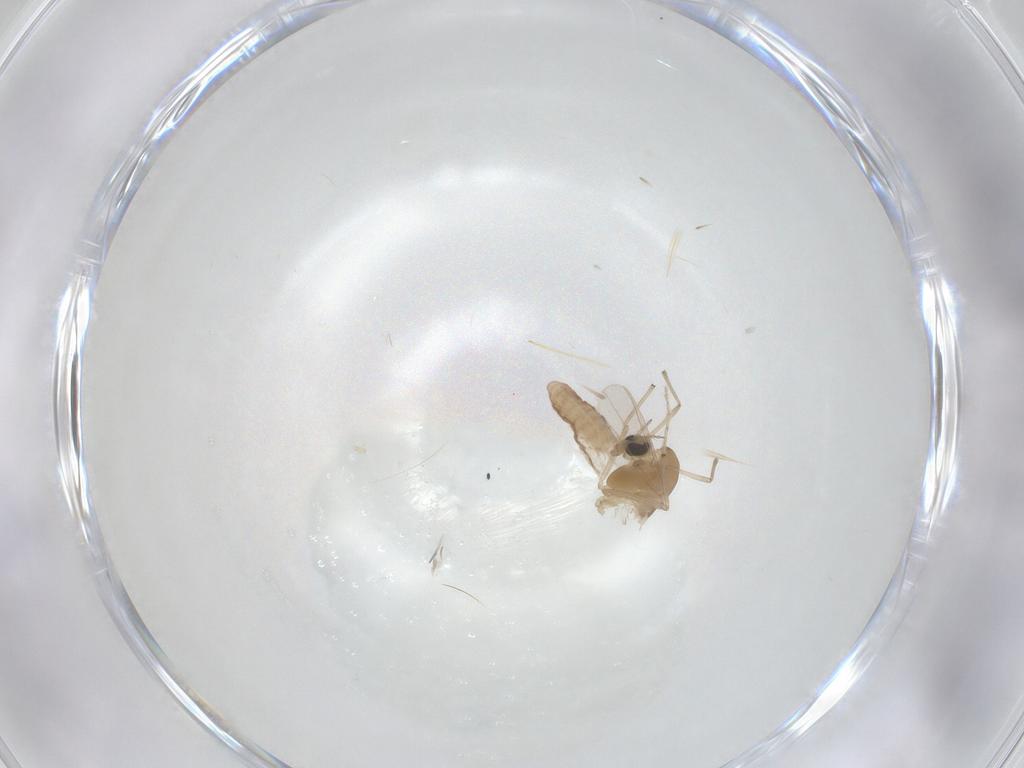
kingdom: Animalia
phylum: Arthropoda
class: Insecta
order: Diptera
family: Chironomidae
